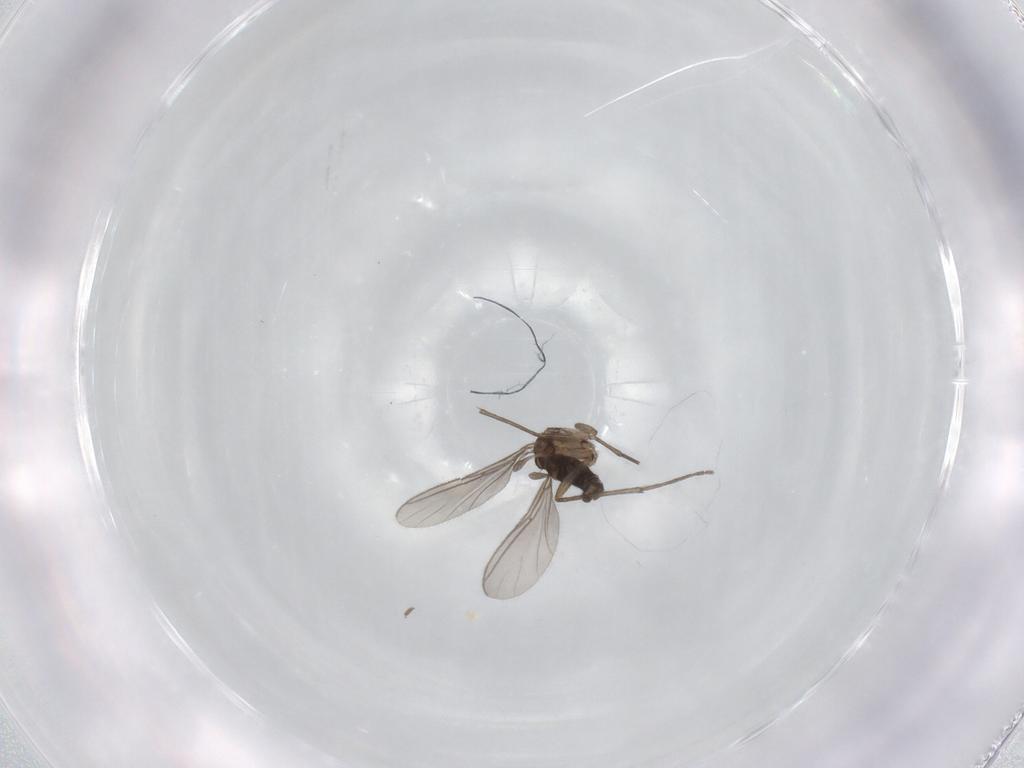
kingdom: Animalia
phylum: Arthropoda
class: Insecta
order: Diptera
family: Sciaridae
